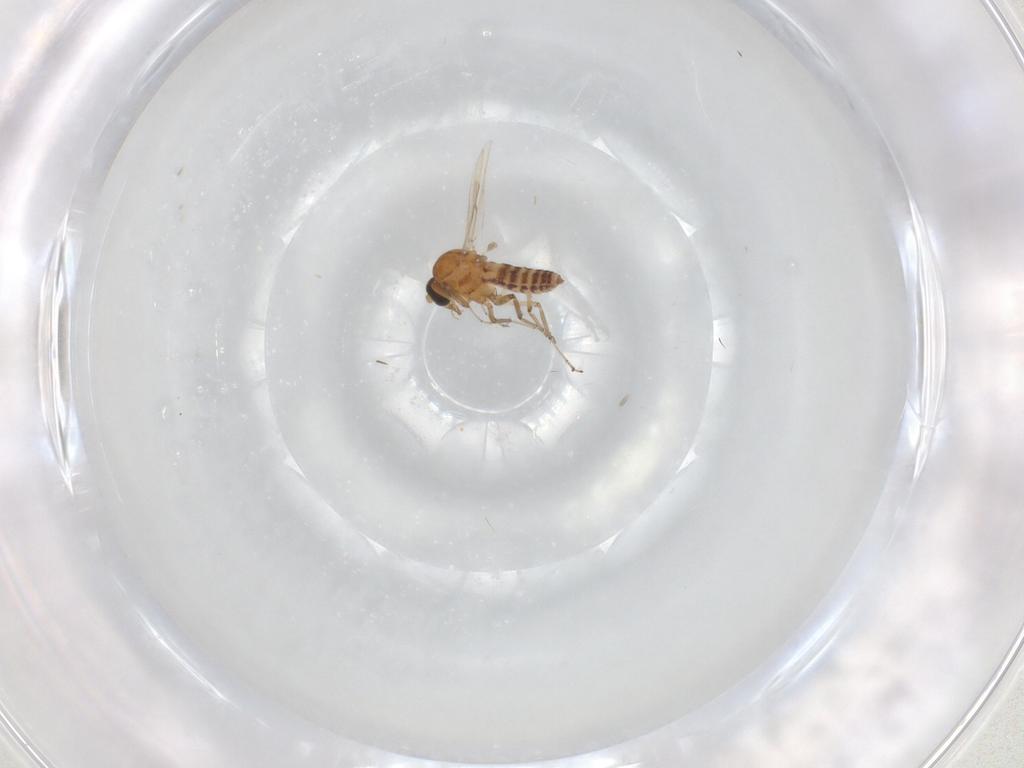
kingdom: Animalia
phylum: Arthropoda
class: Insecta
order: Diptera
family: Ceratopogonidae
